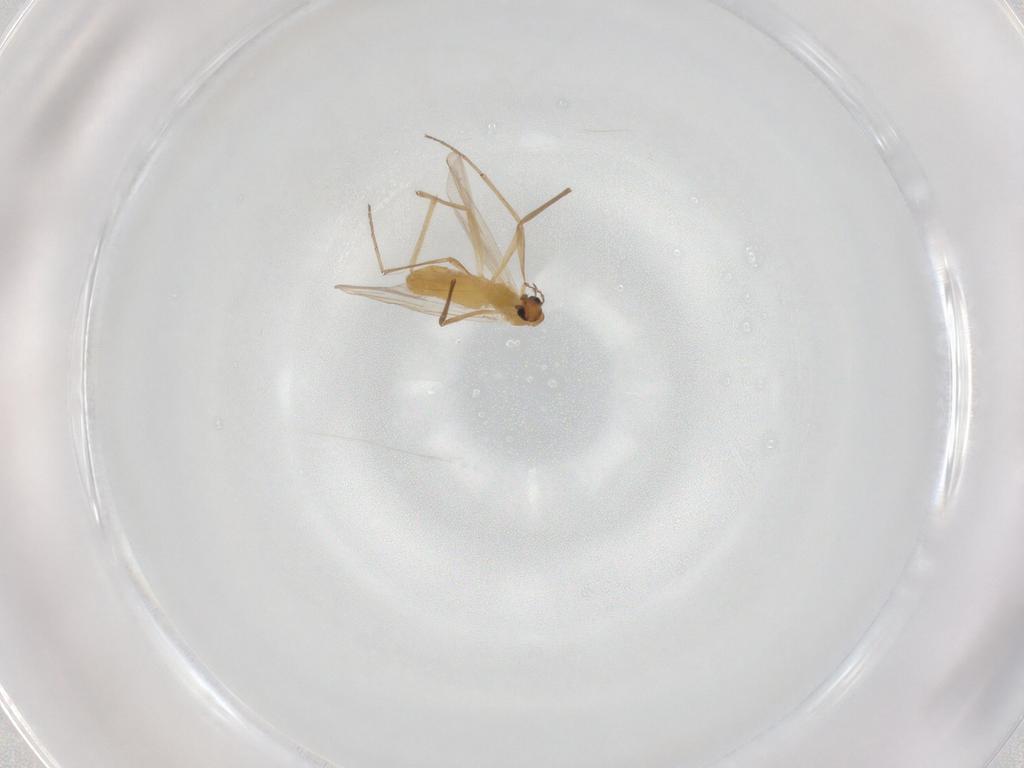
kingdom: Animalia
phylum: Arthropoda
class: Insecta
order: Diptera
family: Chironomidae
